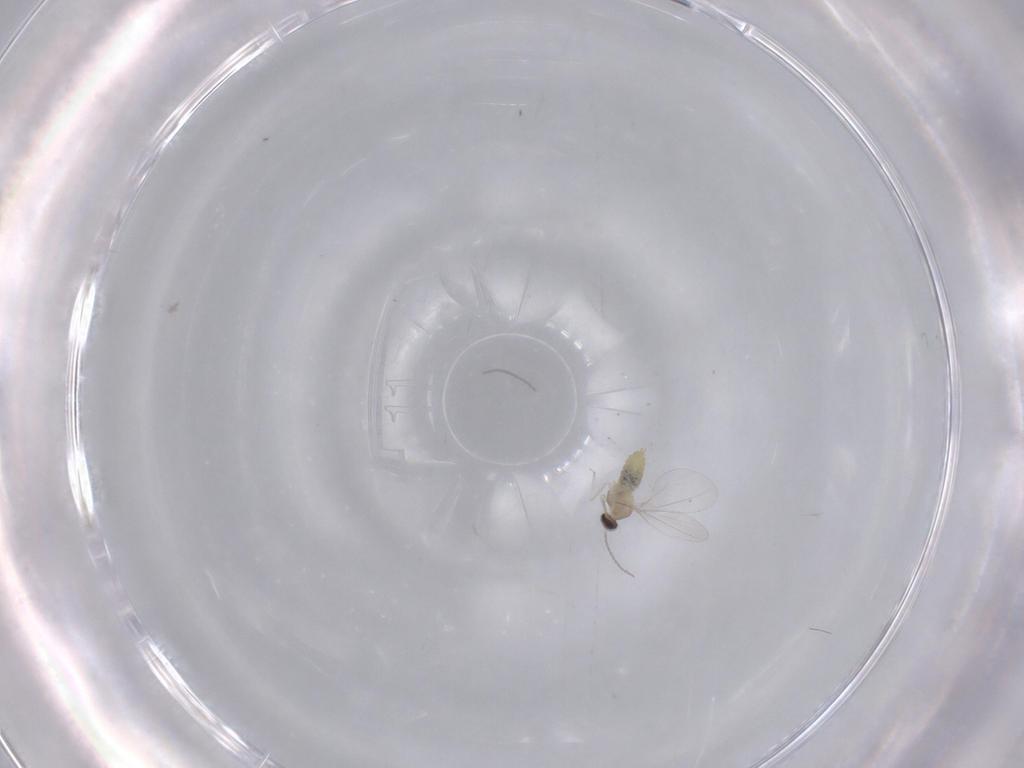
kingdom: Animalia
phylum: Arthropoda
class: Insecta
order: Diptera
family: Cecidomyiidae
